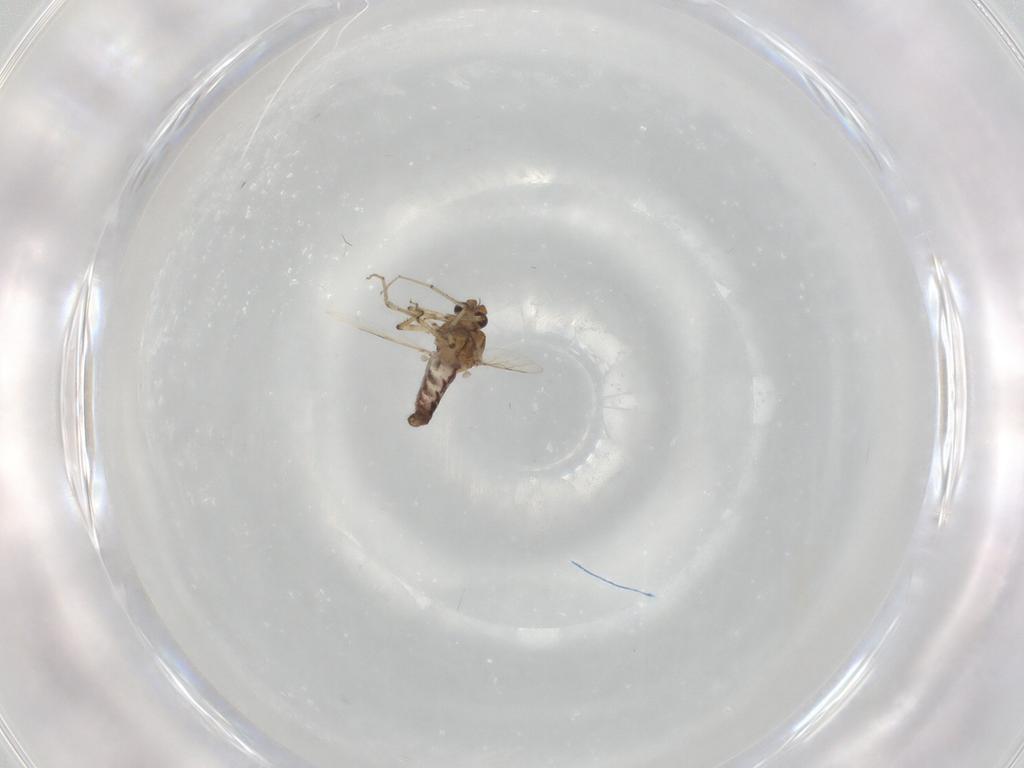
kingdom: Animalia
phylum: Arthropoda
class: Insecta
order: Diptera
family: Ceratopogonidae
